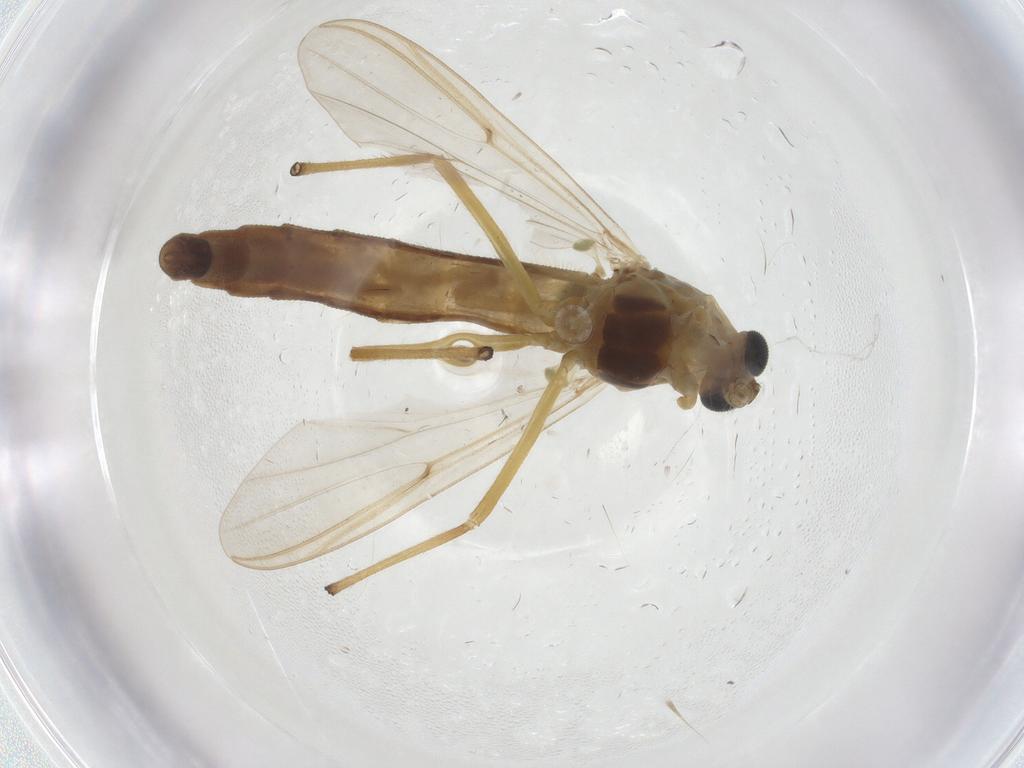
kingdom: Animalia
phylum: Arthropoda
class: Insecta
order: Diptera
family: Chironomidae
